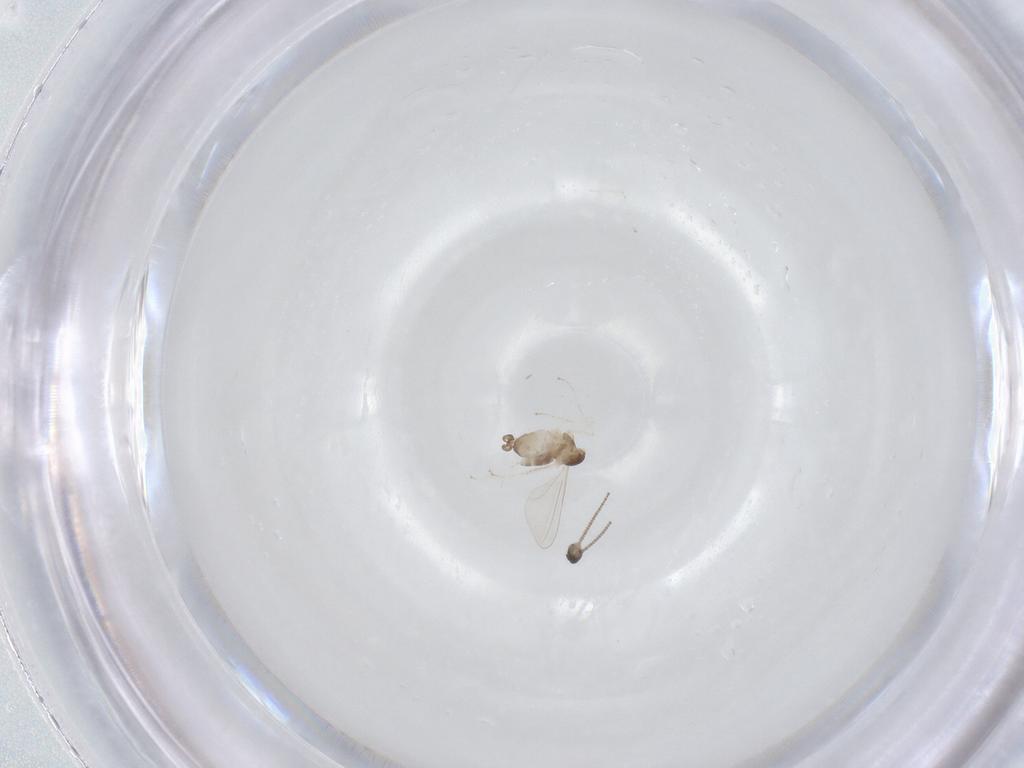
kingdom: Animalia
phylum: Arthropoda
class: Insecta
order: Diptera
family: Cecidomyiidae
